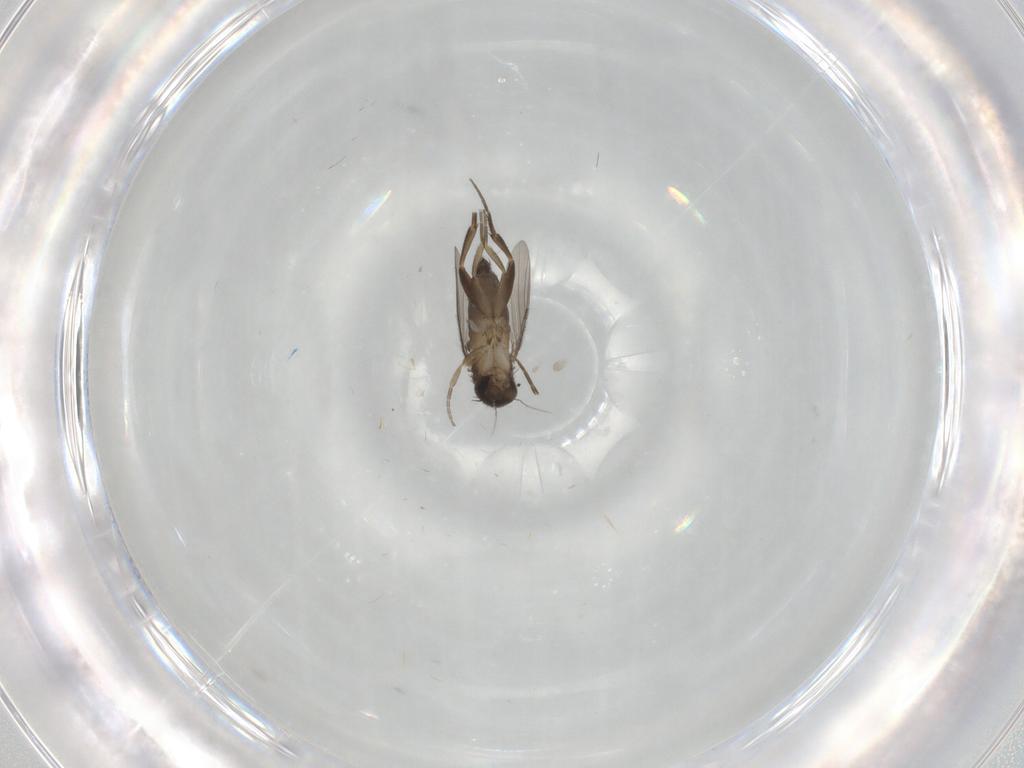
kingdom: Animalia
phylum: Arthropoda
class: Insecta
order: Diptera
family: Phoridae
